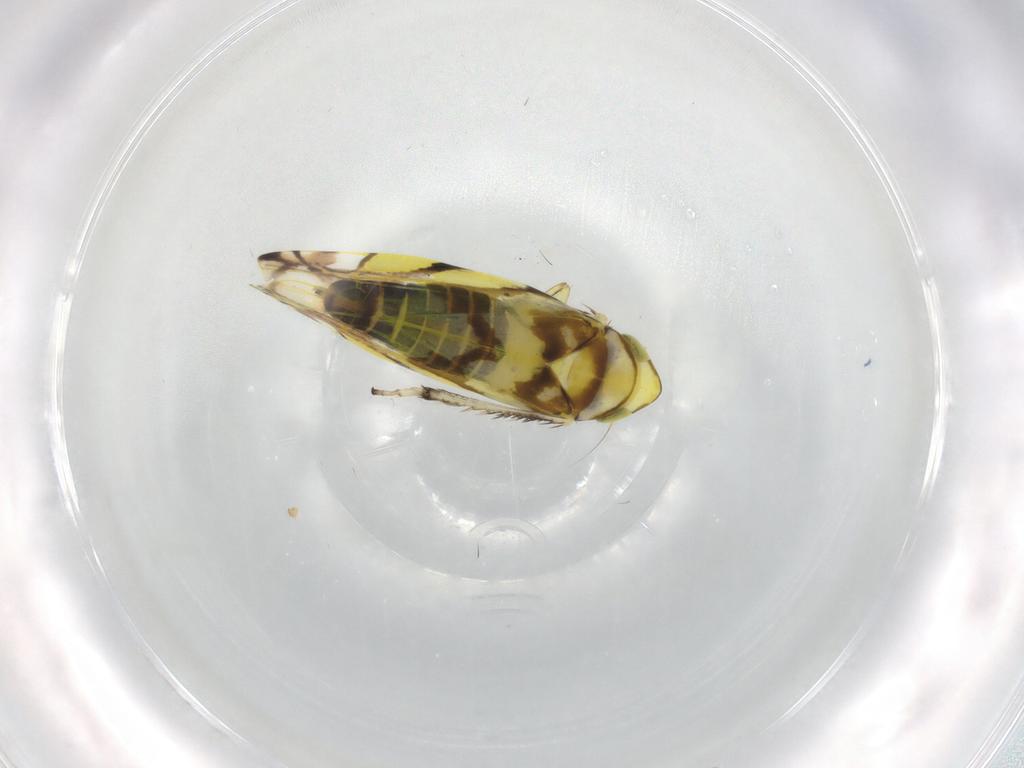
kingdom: Animalia
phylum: Arthropoda
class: Insecta
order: Hemiptera
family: Cicadellidae
